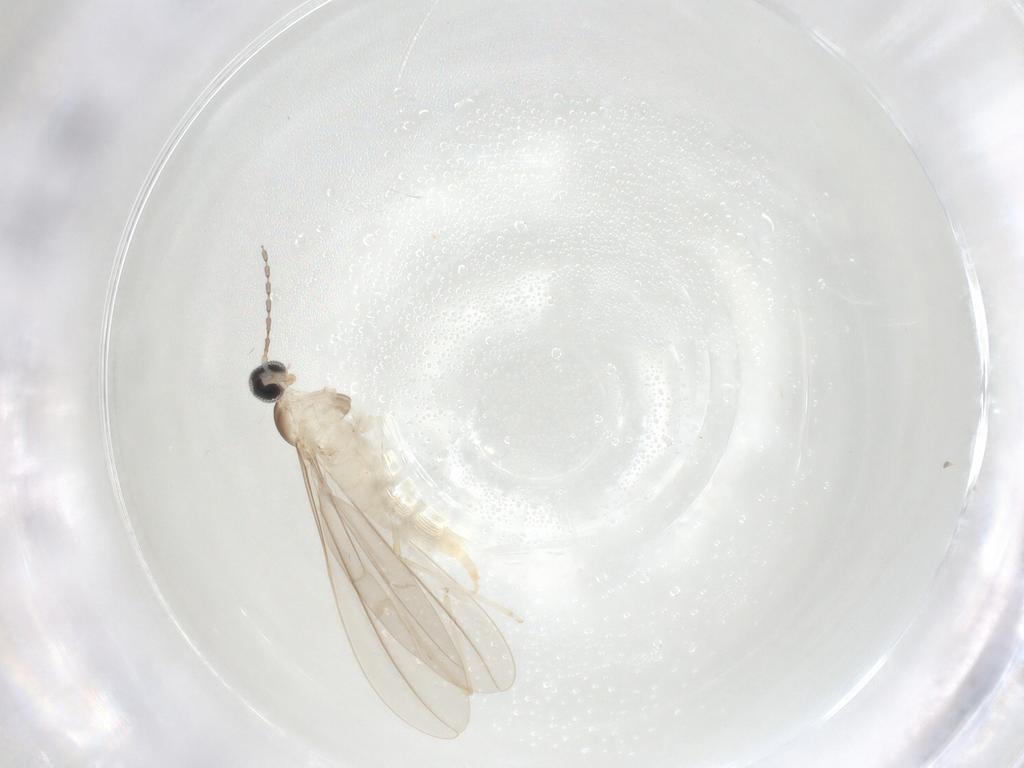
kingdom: Animalia
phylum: Arthropoda
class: Insecta
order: Diptera
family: Cecidomyiidae
